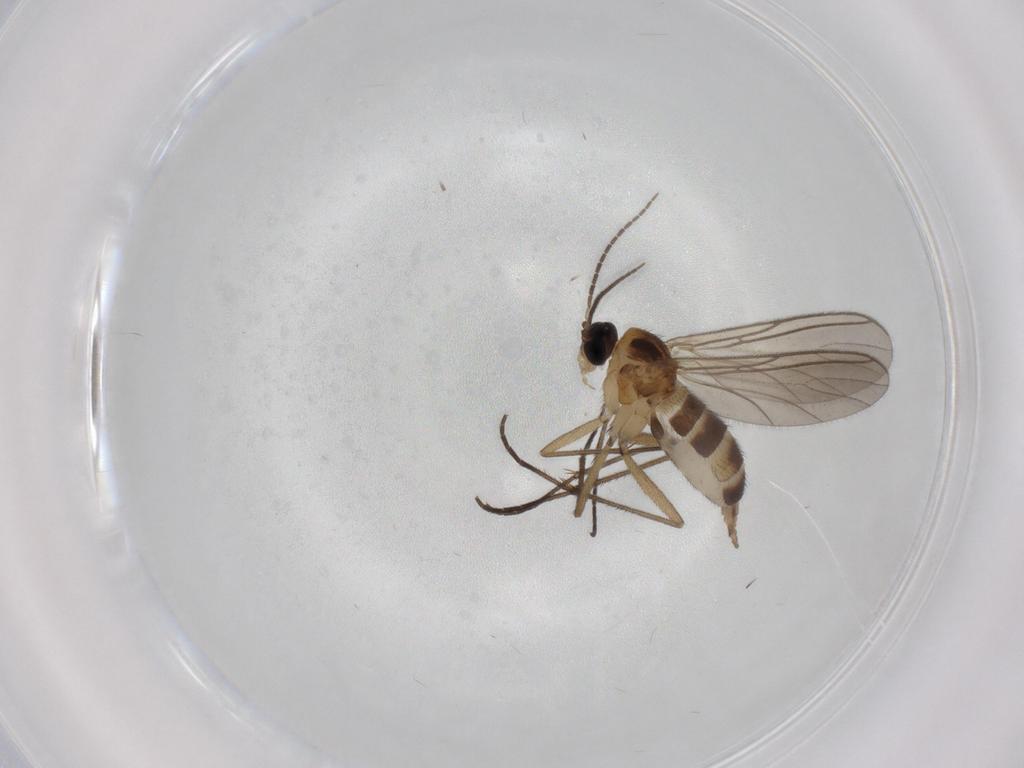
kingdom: Animalia
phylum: Arthropoda
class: Insecta
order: Diptera
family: Sciaridae
